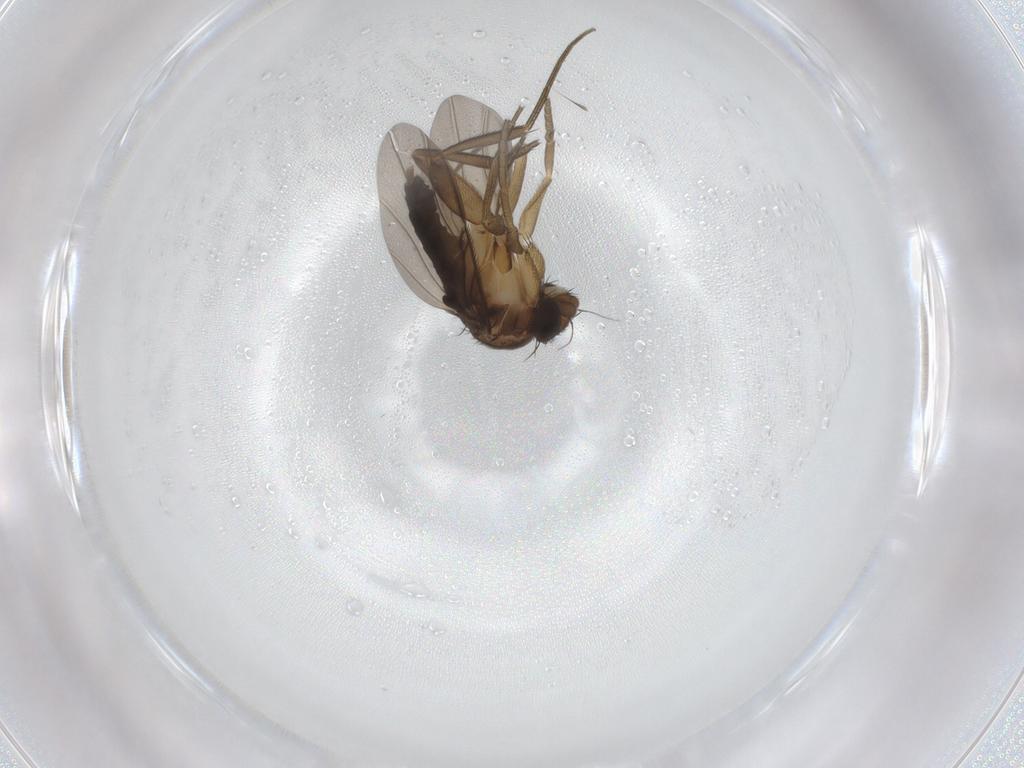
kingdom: Animalia
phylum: Arthropoda
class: Insecta
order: Diptera
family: Phoridae
